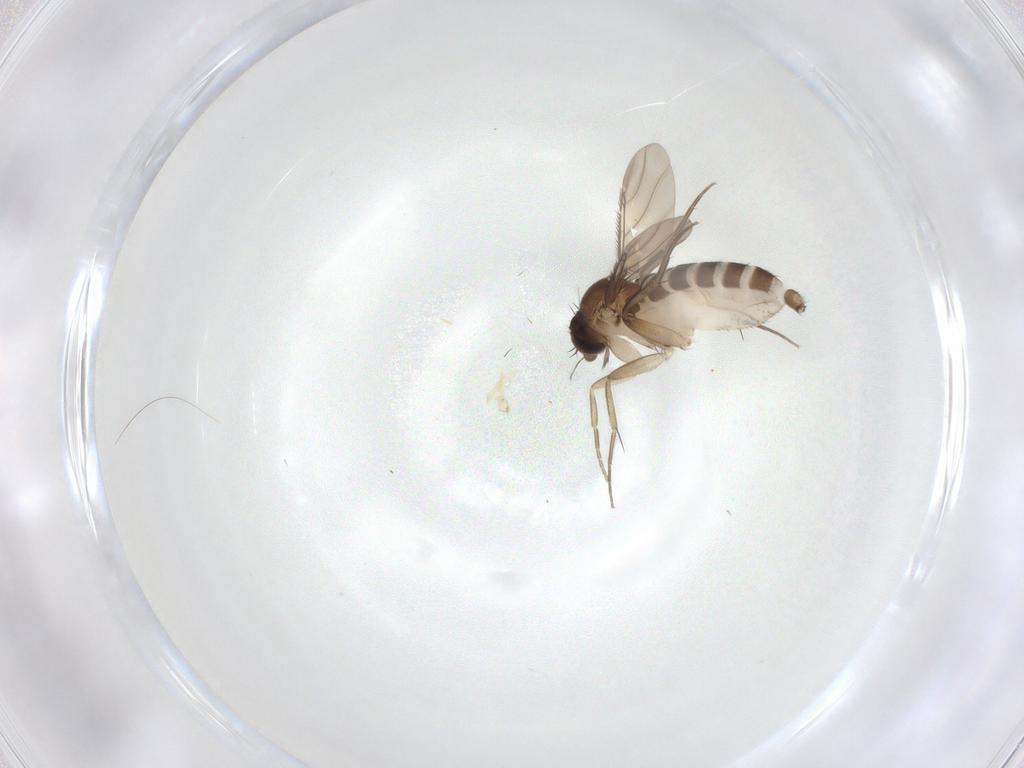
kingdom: Animalia
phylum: Arthropoda
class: Insecta
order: Diptera
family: Phoridae
